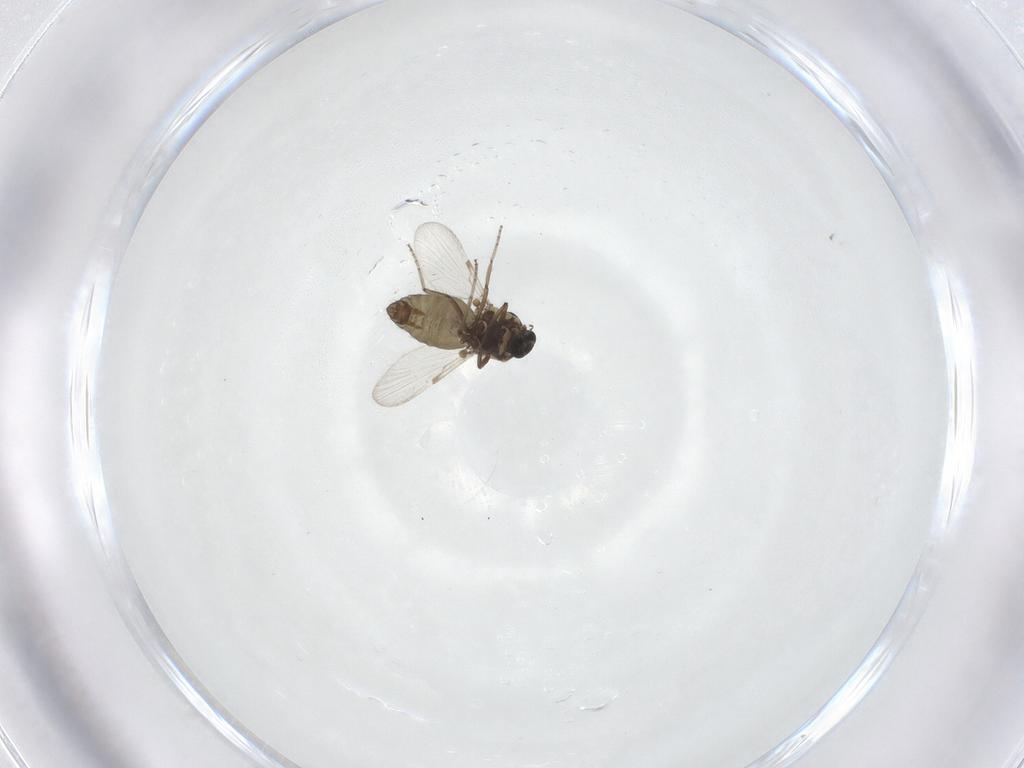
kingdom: Animalia
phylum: Arthropoda
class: Insecta
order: Diptera
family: Ceratopogonidae
